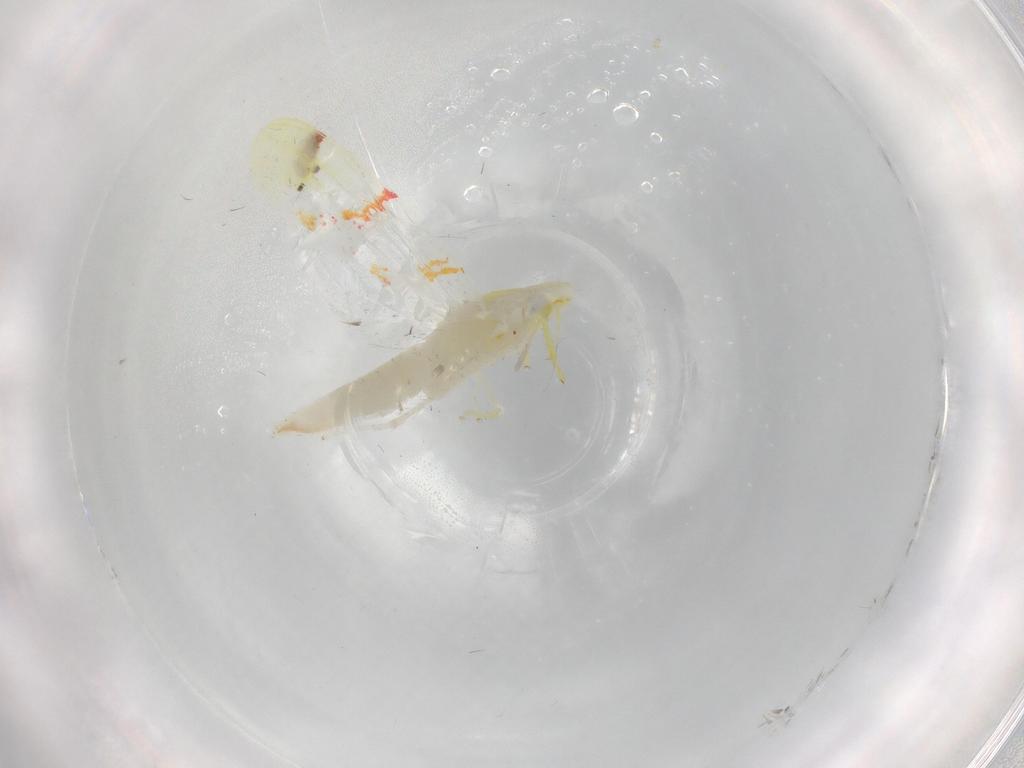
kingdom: Animalia
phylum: Arthropoda
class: Insecta
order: Hemiptera
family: Cicadellidae
